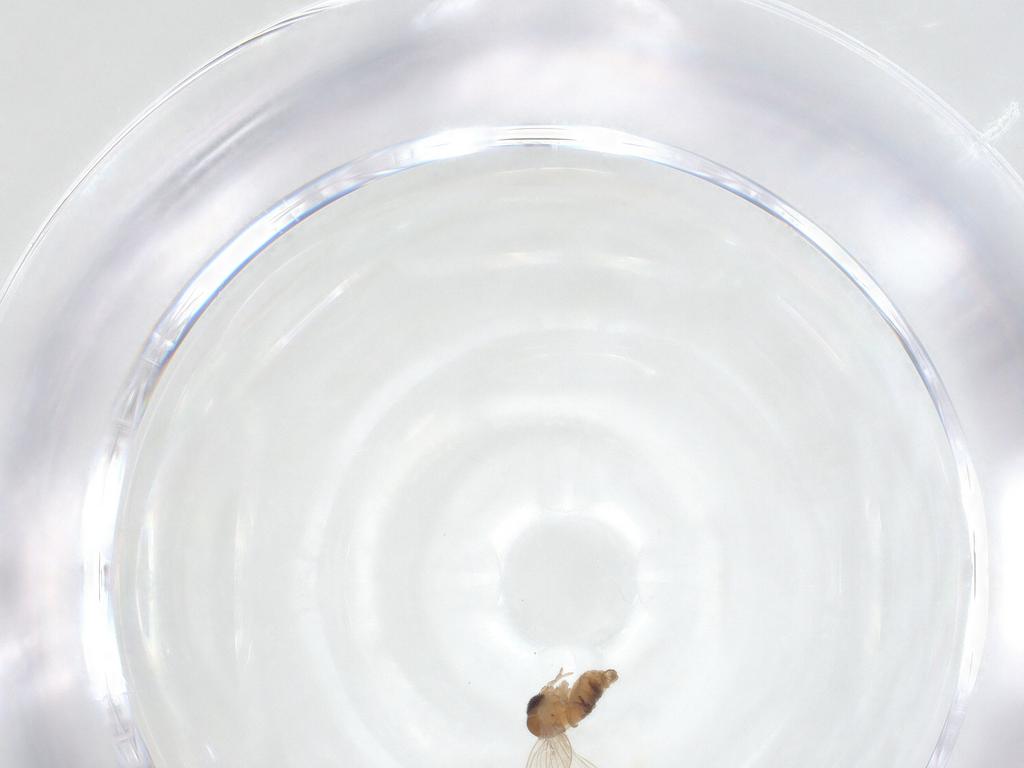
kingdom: Animalia
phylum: Arthropoda
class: Insecta
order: Diptera
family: Psychodidae
